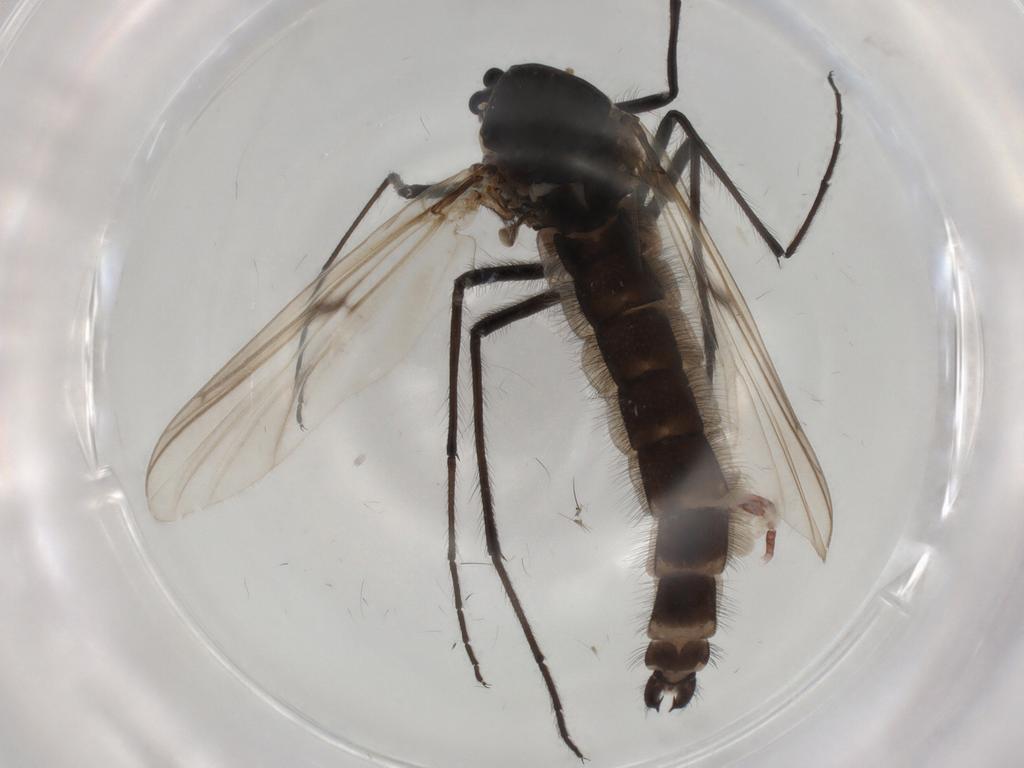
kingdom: Animalia
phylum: Arthropoda
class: Insecta
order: Diptera
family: Chironomidae
